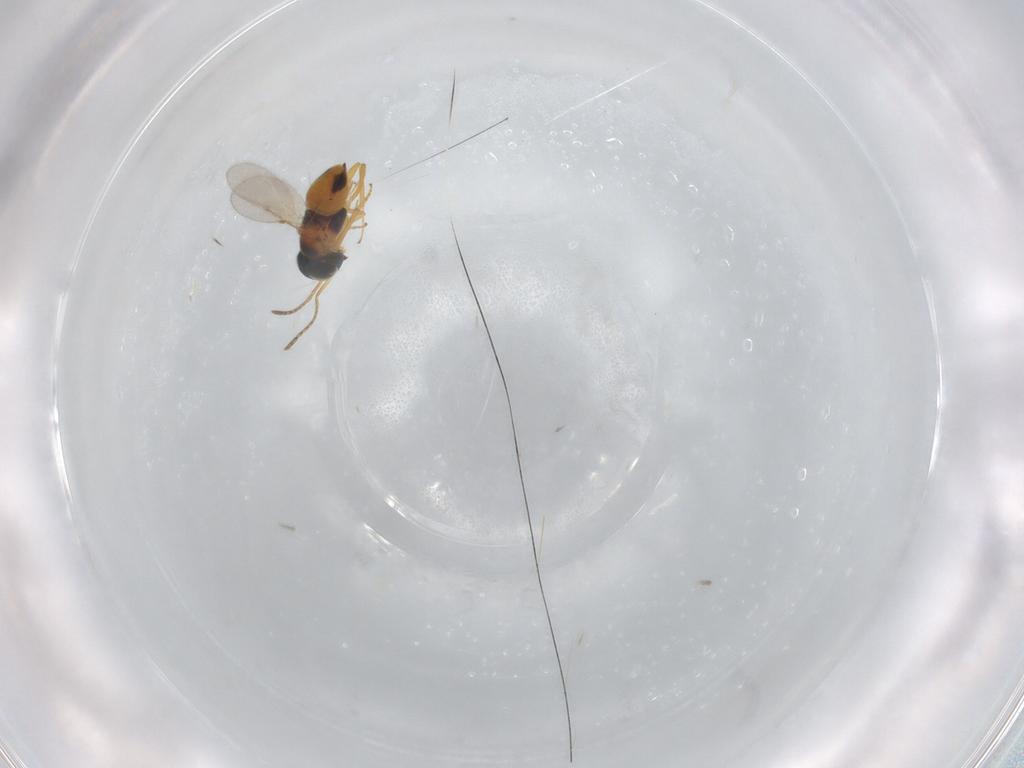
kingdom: Animalia
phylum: Arthropoda
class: Insecta
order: Hymenoptera
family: Encyrtidae
